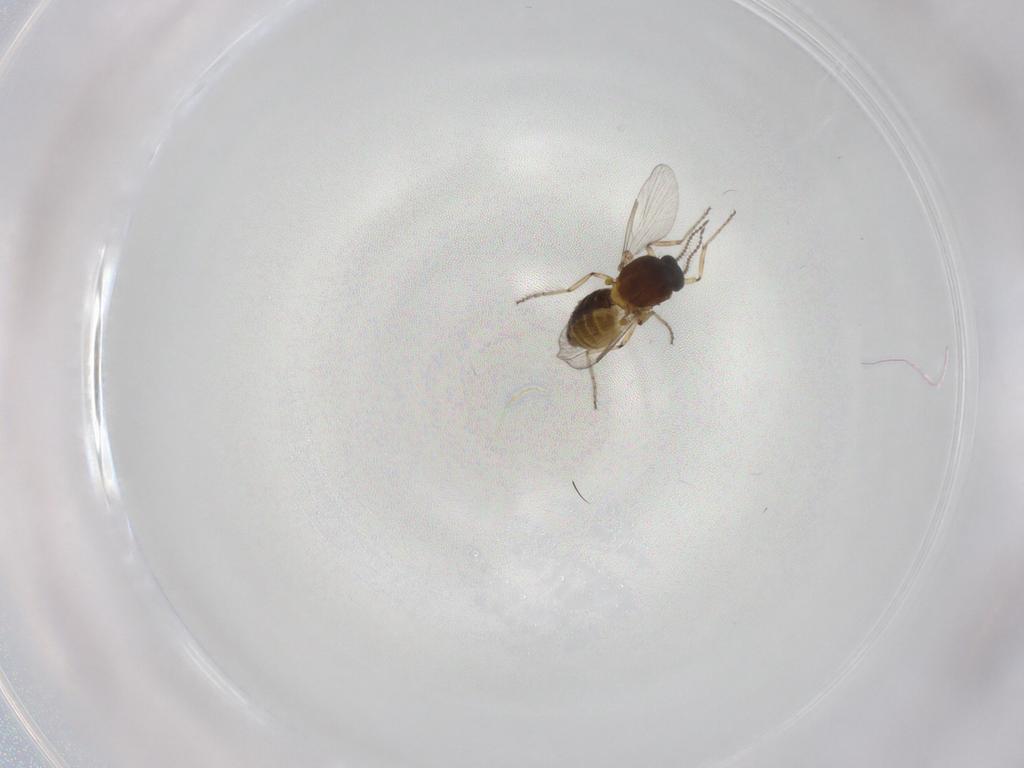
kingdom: Animalia
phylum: Arthropoda
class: Insecta
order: Diptera
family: Ceratopogonidae
